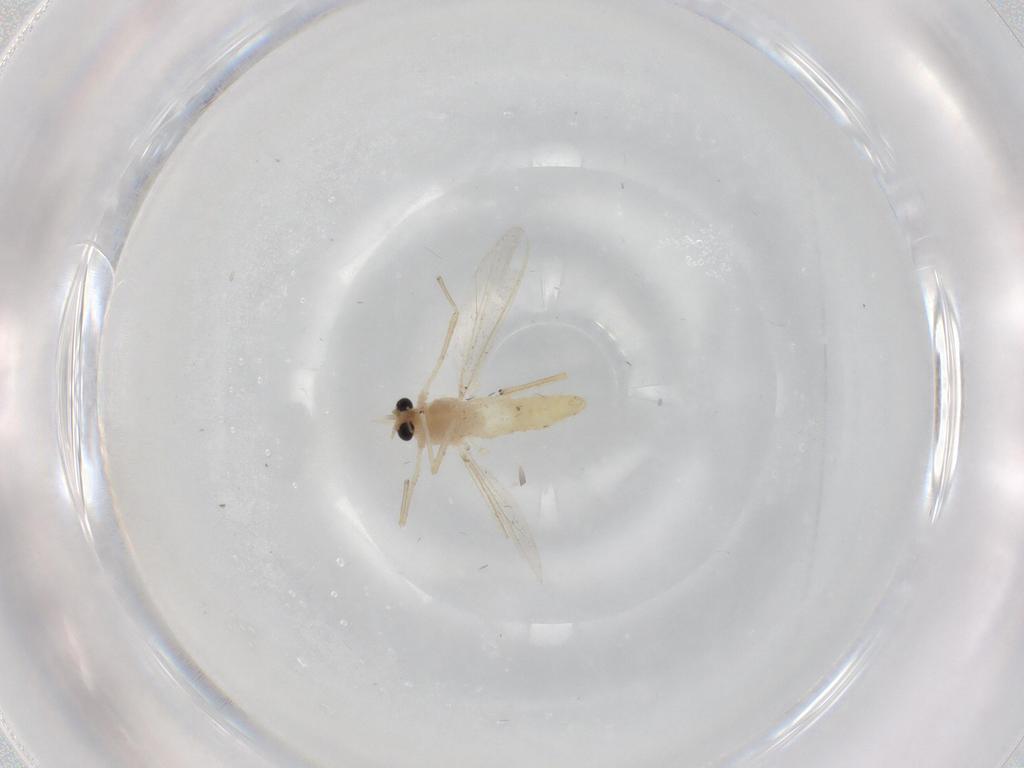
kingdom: Animalia
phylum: Arthropoda
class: Insecta
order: Diptera
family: Chironomidae
